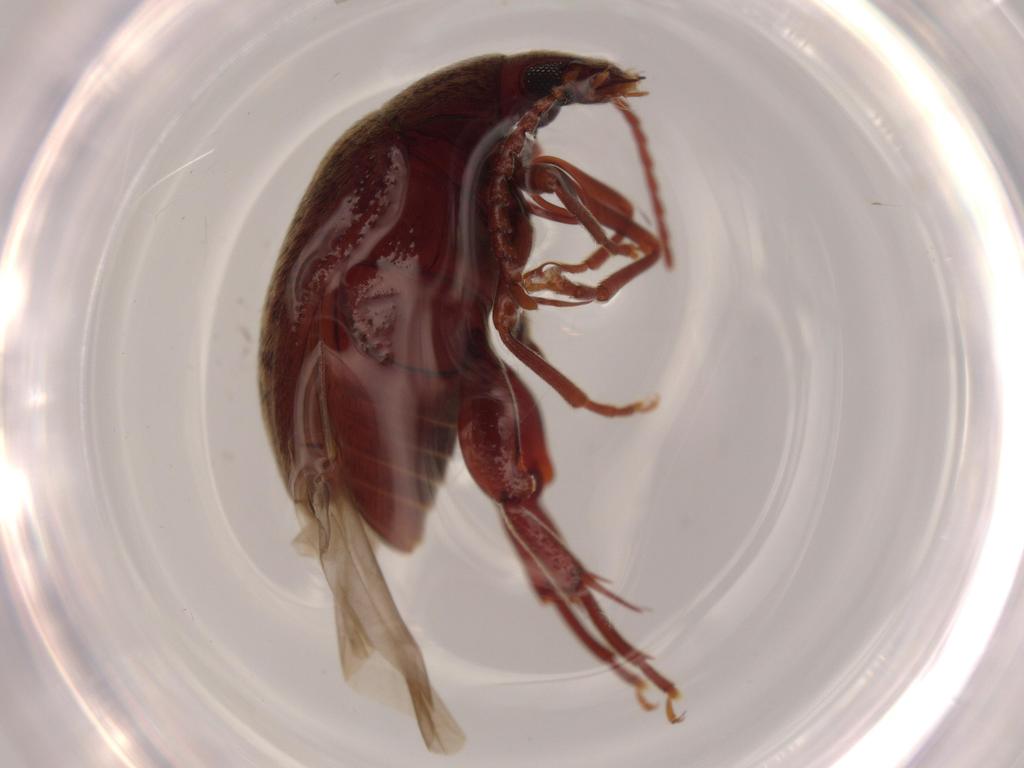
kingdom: Animalia
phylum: Arthropoda
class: Insecta
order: Coleoptera
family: Chrysomelidae
